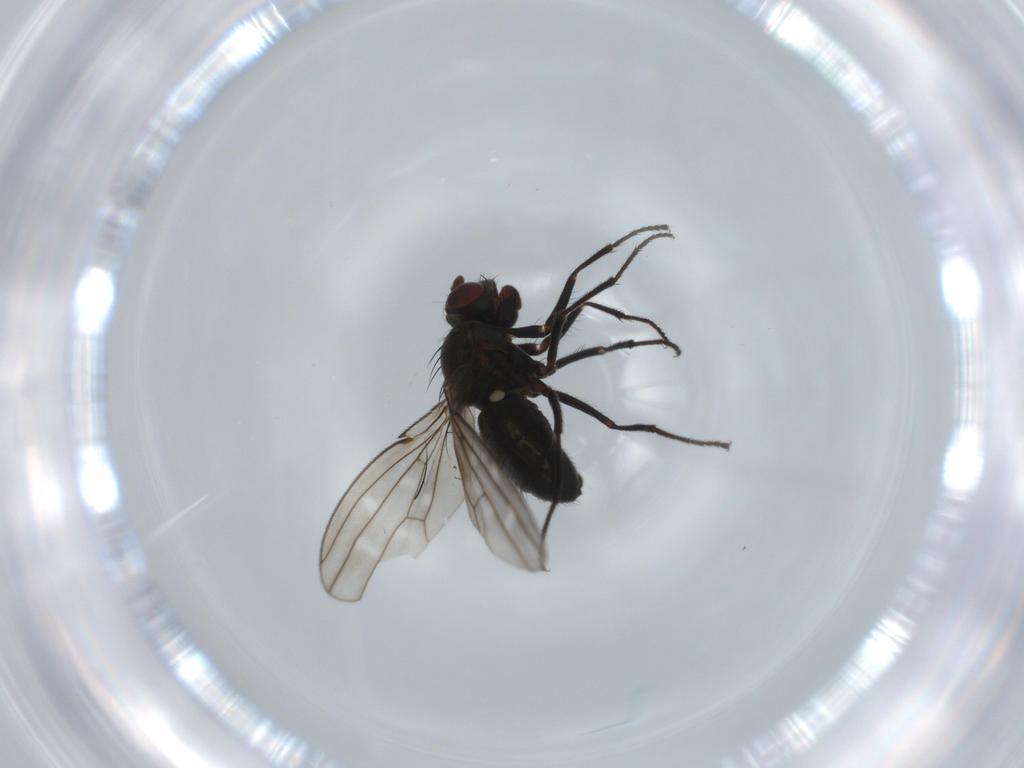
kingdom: Animalia
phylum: Arthropoda
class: Insecta
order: Diptera
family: Ephydridae
